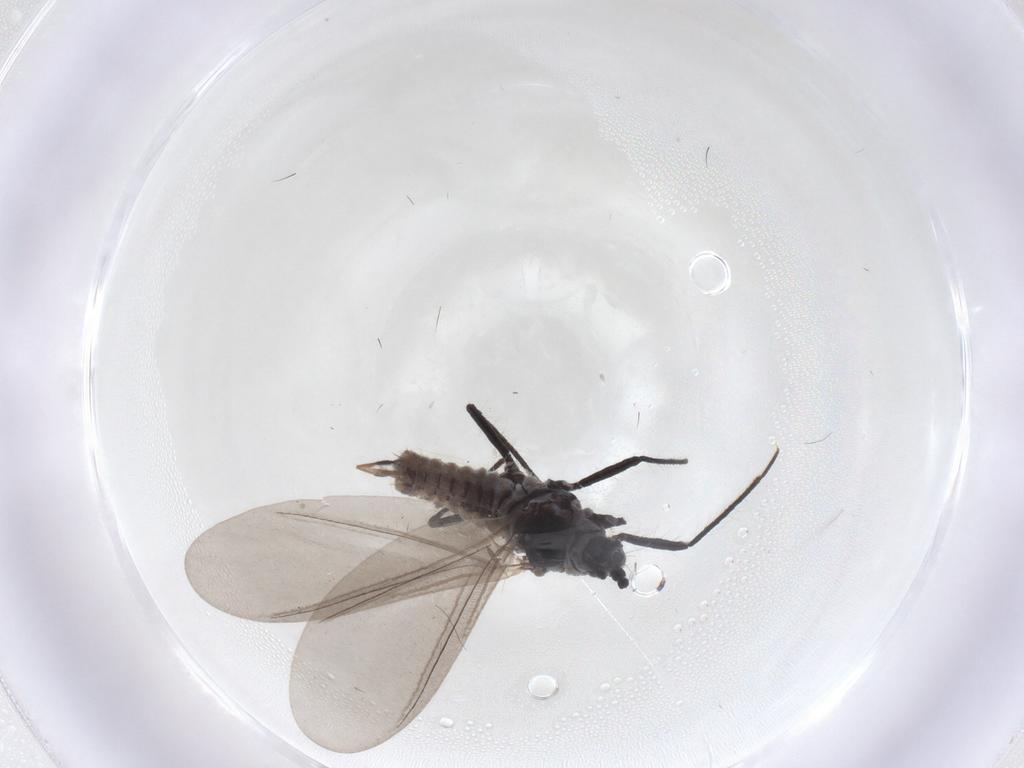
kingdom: Animalia
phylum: Arthropoda
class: Insecta
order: Hemiptera
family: Putoidae
